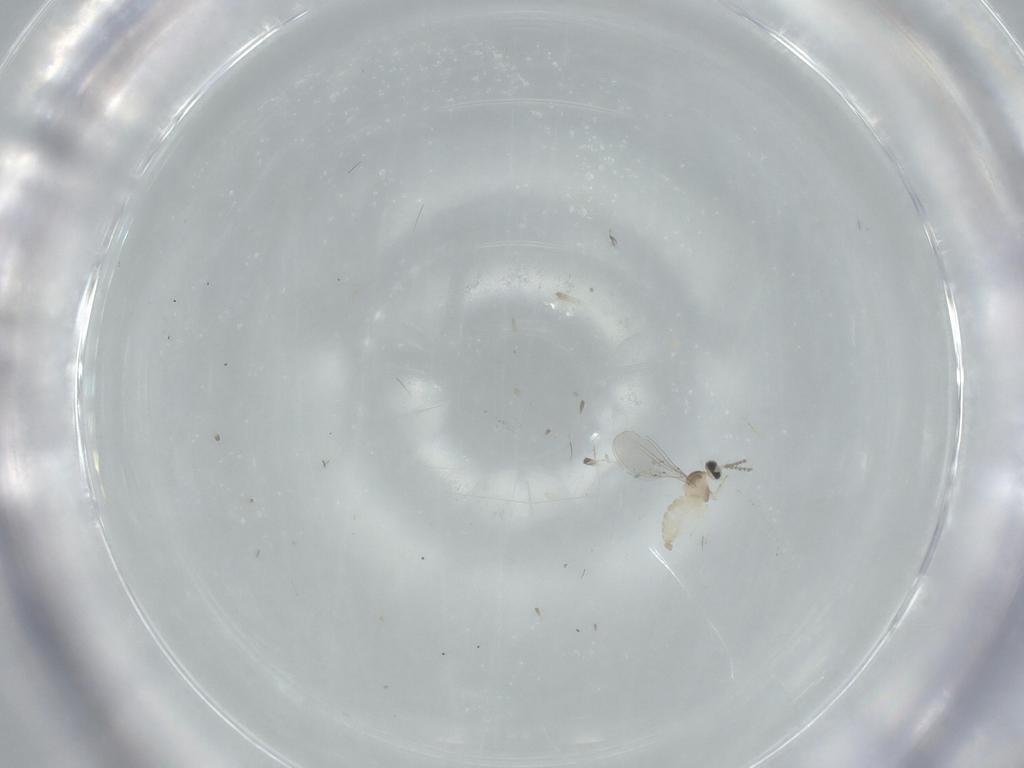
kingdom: Animalia
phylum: Arthropoda
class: Insecta
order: Diptera
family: Cecidomyiidae
